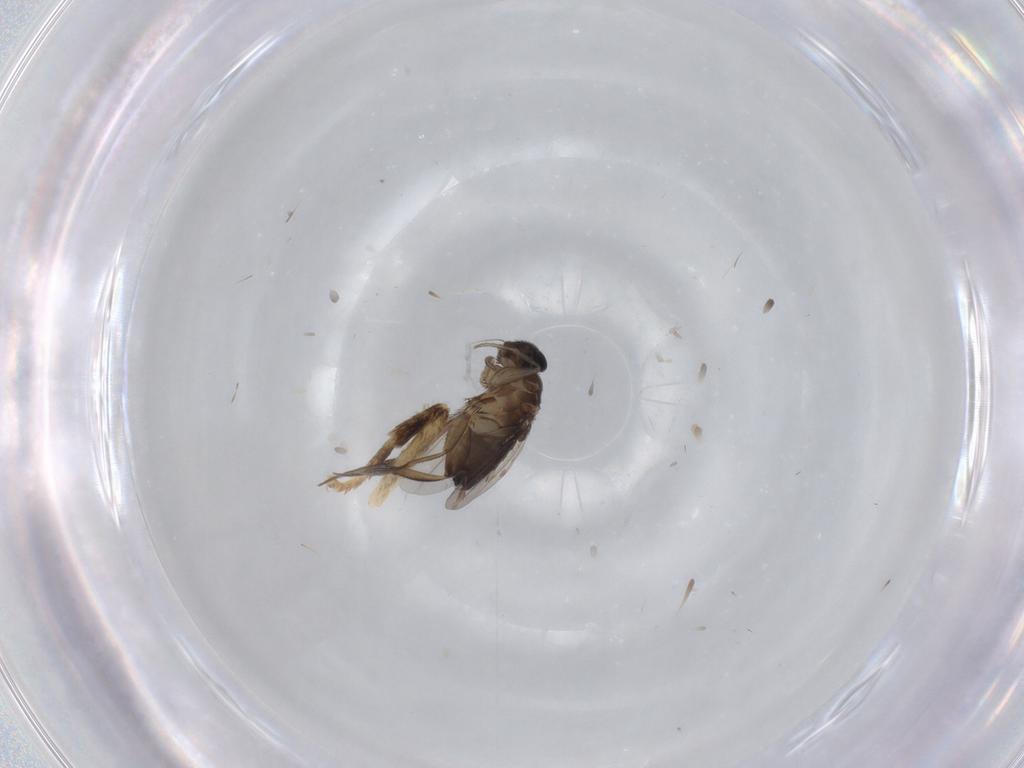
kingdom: Animalia
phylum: Arthropoda
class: Insecta
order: Diptera
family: Phoridae
